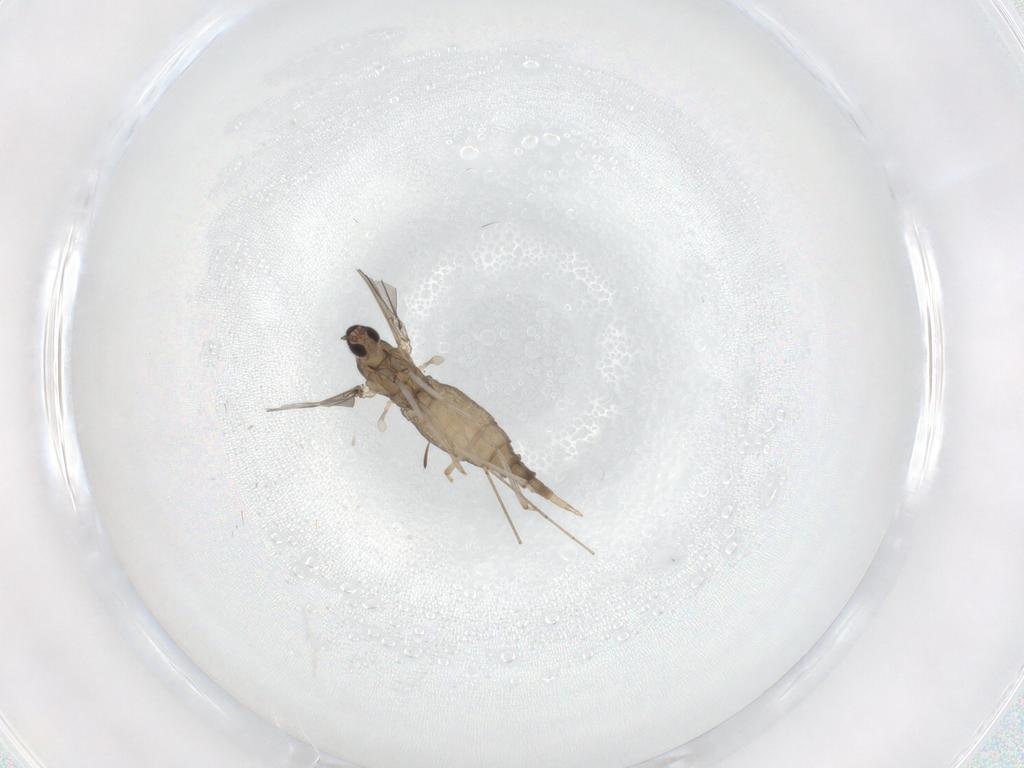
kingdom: Animalia
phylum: Arthropoda
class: Insecta
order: Diptera
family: Cecidomyiidae
